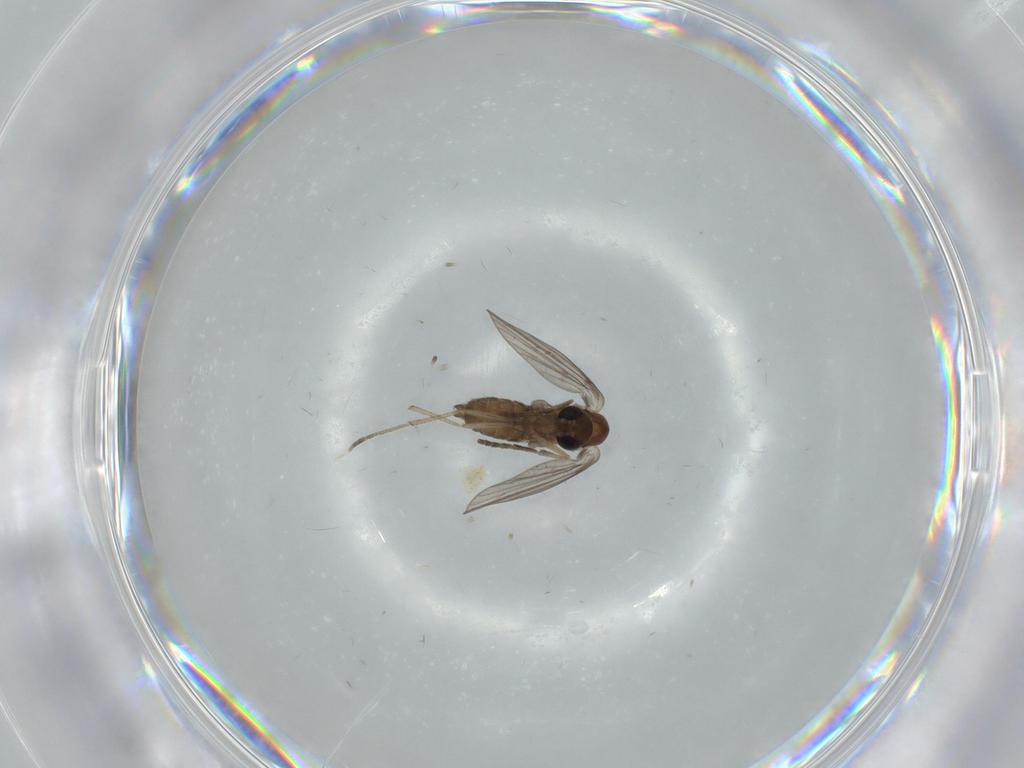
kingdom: Animalia
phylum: Arthropoda
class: Insecta
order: Diptera
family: Psychodidae
